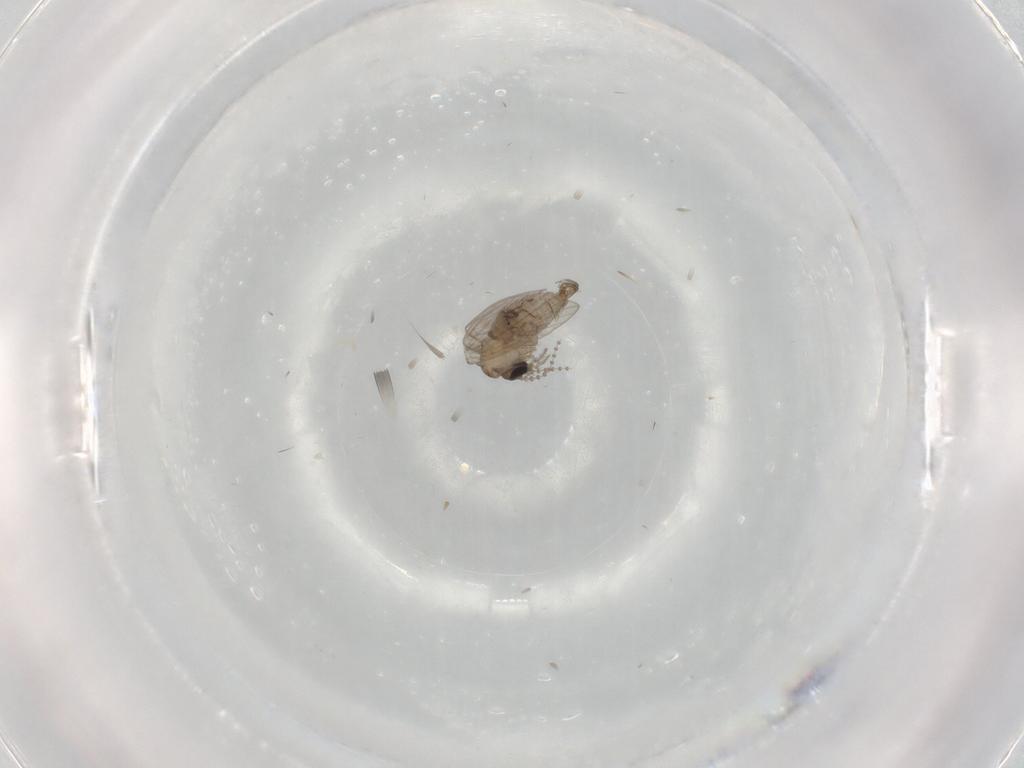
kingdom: Animalia
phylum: Arthropoda
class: Insecta
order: Diptera
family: Psychodidae
